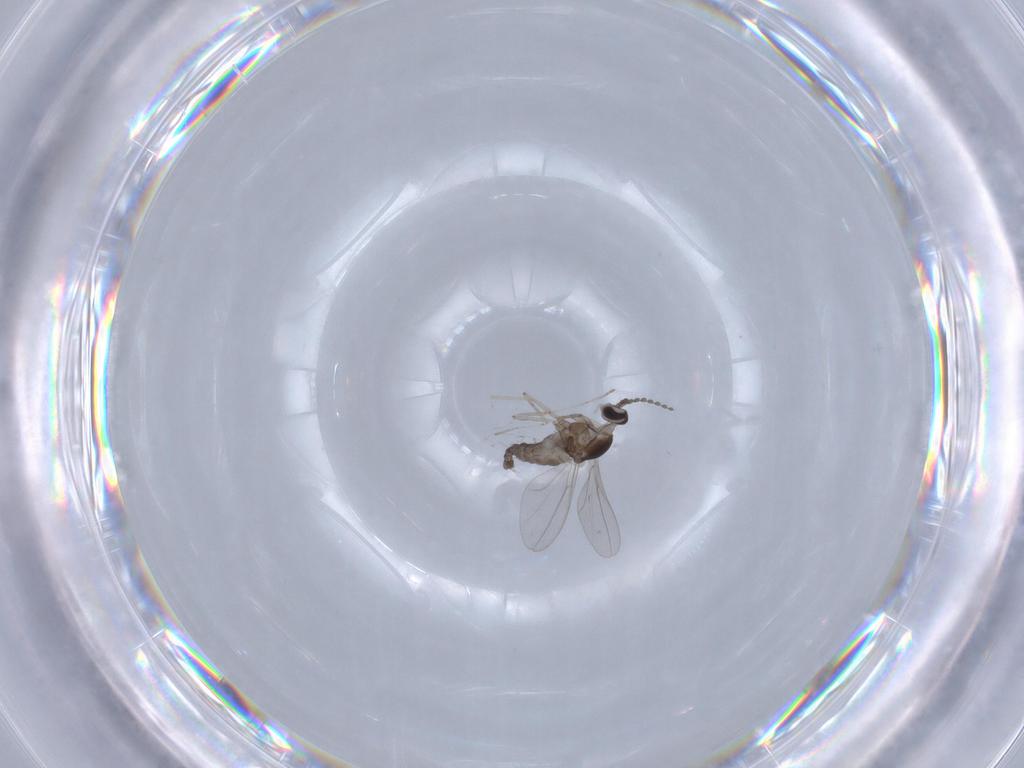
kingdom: Animalia
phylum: Arthropoda
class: Insecta
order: Diptera
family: Cecidomyiidae
